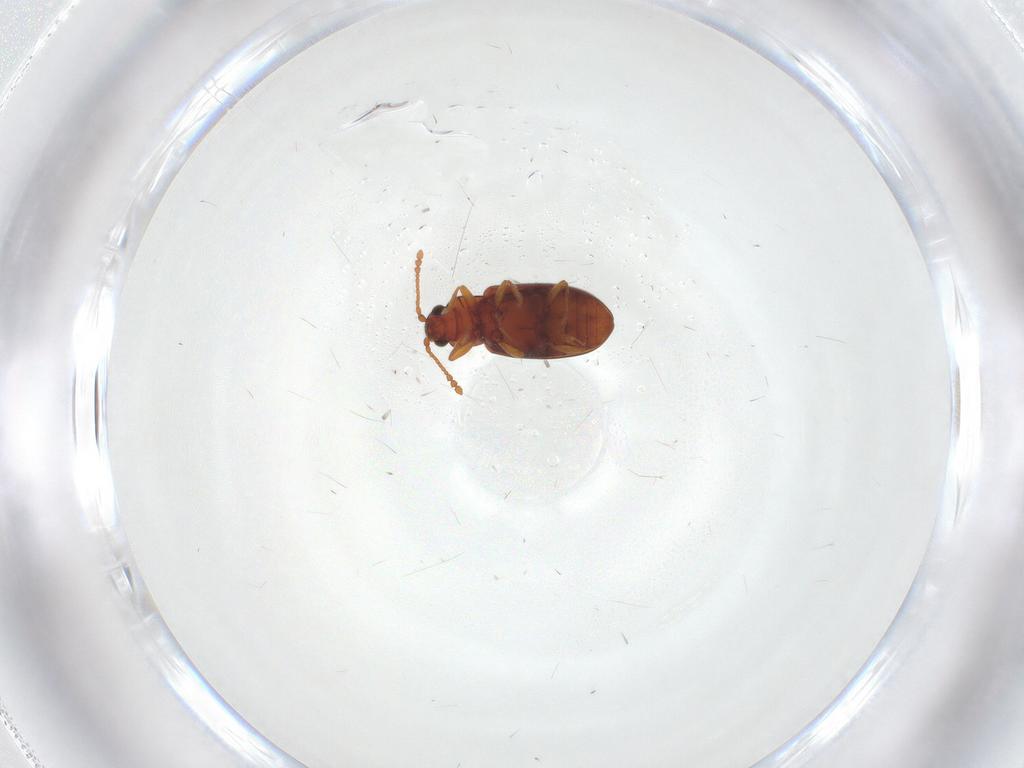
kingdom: Animalia
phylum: Arthropoda
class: Insecta
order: Coleoptera
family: Cryptophagidae
